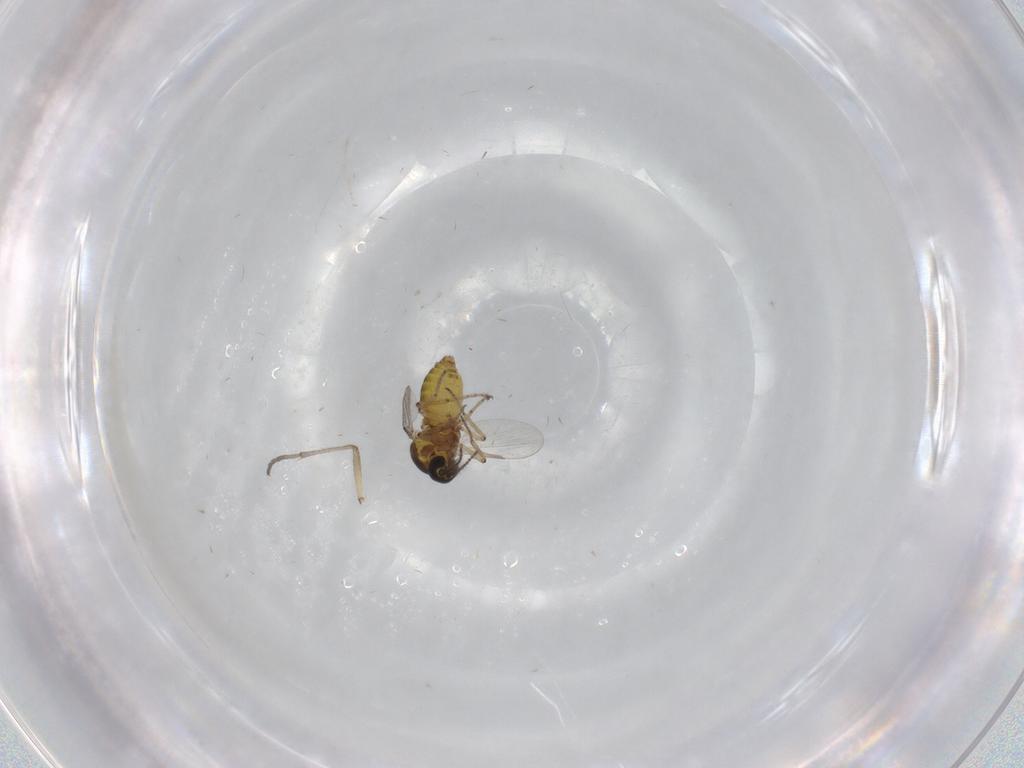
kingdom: Animalia
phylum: Arthropoda
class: Insecta
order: Diptera
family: Ceratopogonidae
